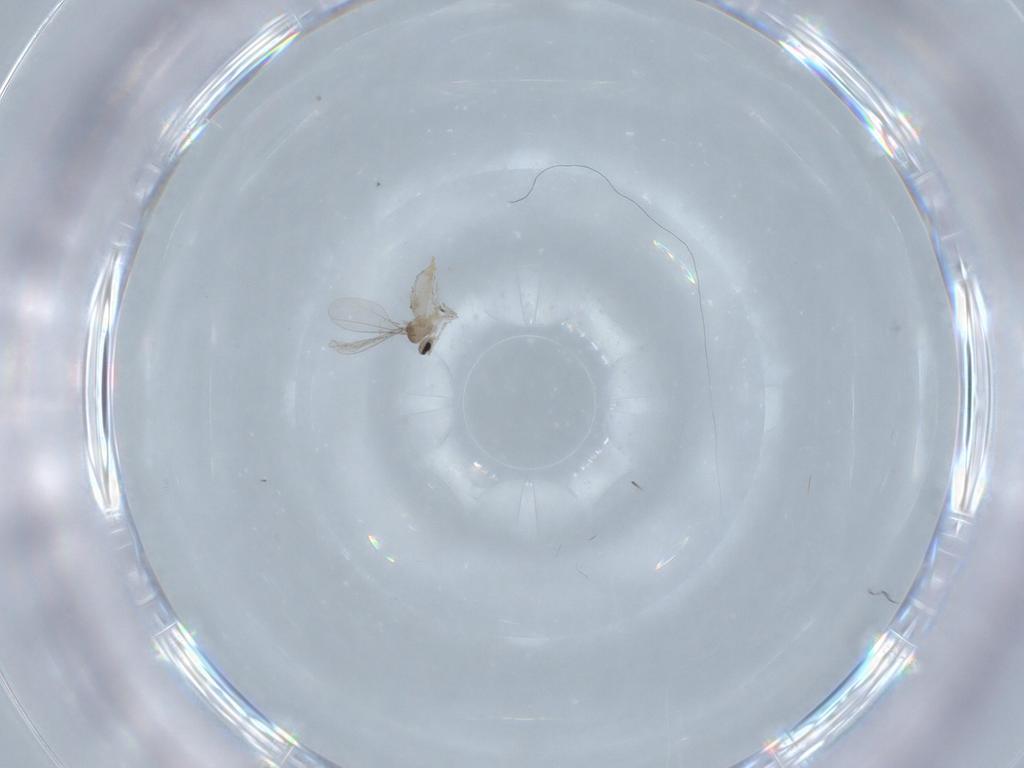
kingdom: Animalia
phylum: Arthropoda
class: Insecta
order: Diptera
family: Cecidomyiidae
